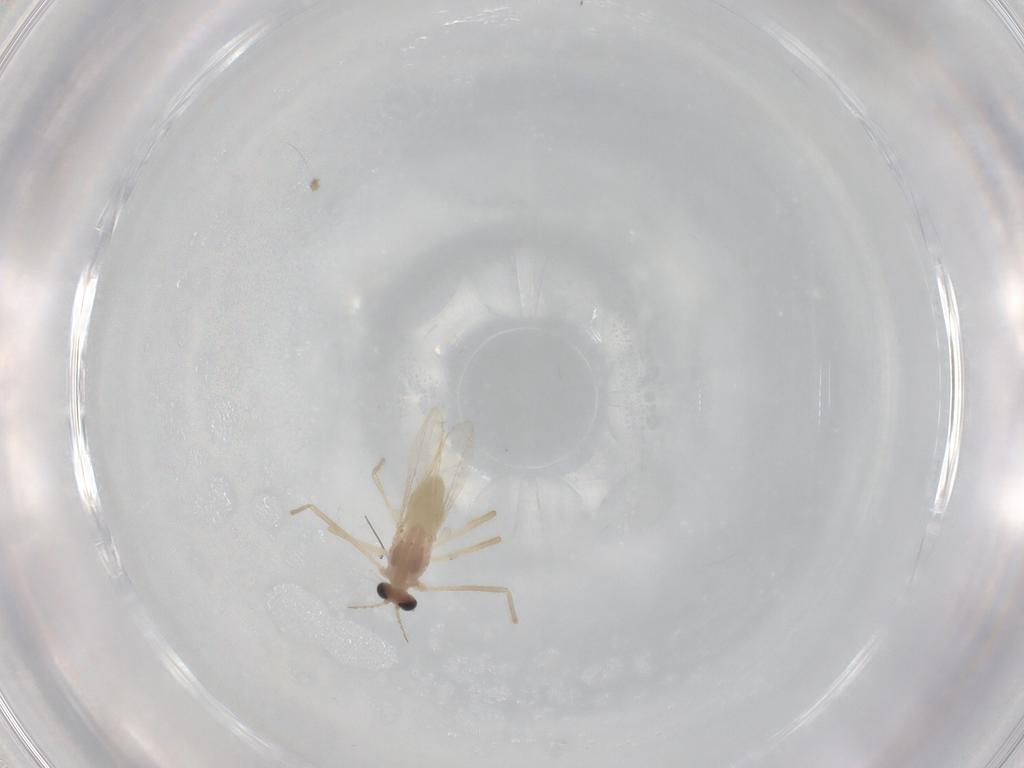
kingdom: Animalia
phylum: Arthropoda
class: Insecta
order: Diptera
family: Chironomidae
